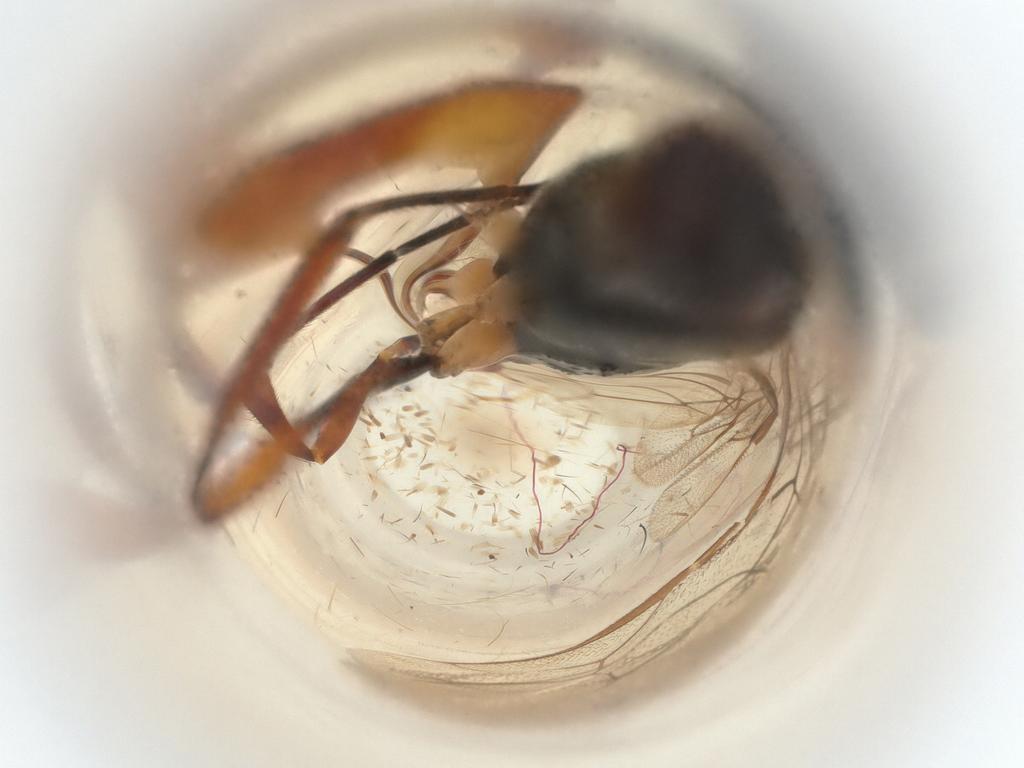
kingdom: Animalia
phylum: Arthropoda
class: Insecta
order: Hymenoptera
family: Ichneumonidae
